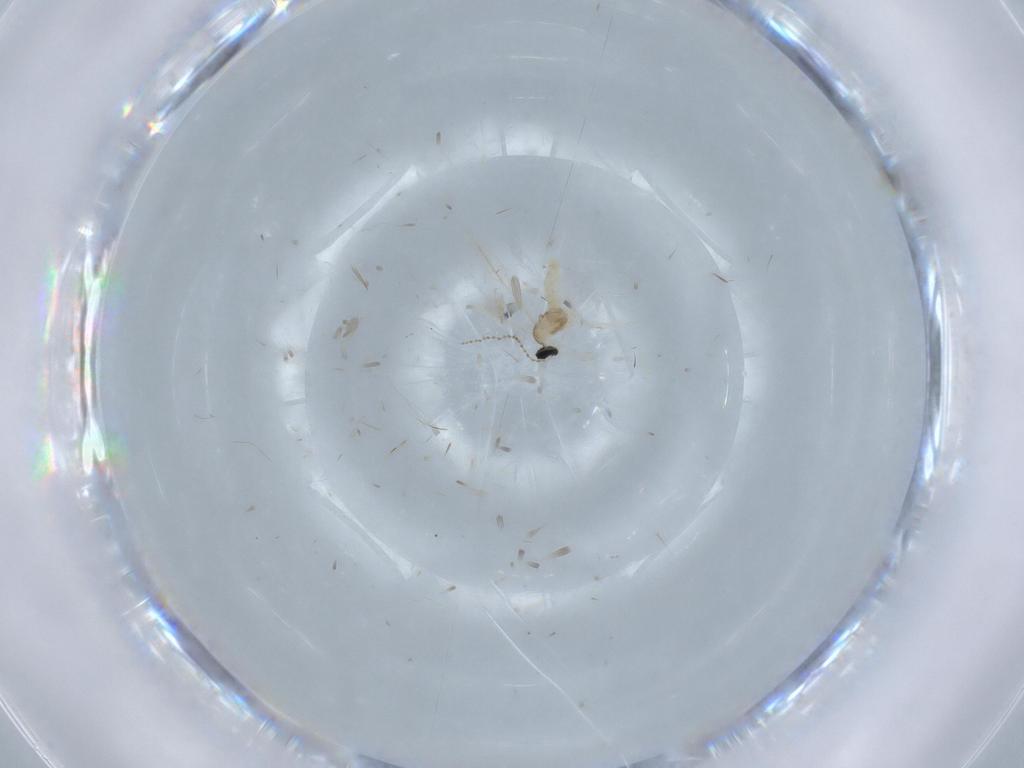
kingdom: Animalia
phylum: Arthropoda
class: Insecta
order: Diptera
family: Cecidomyiidae
